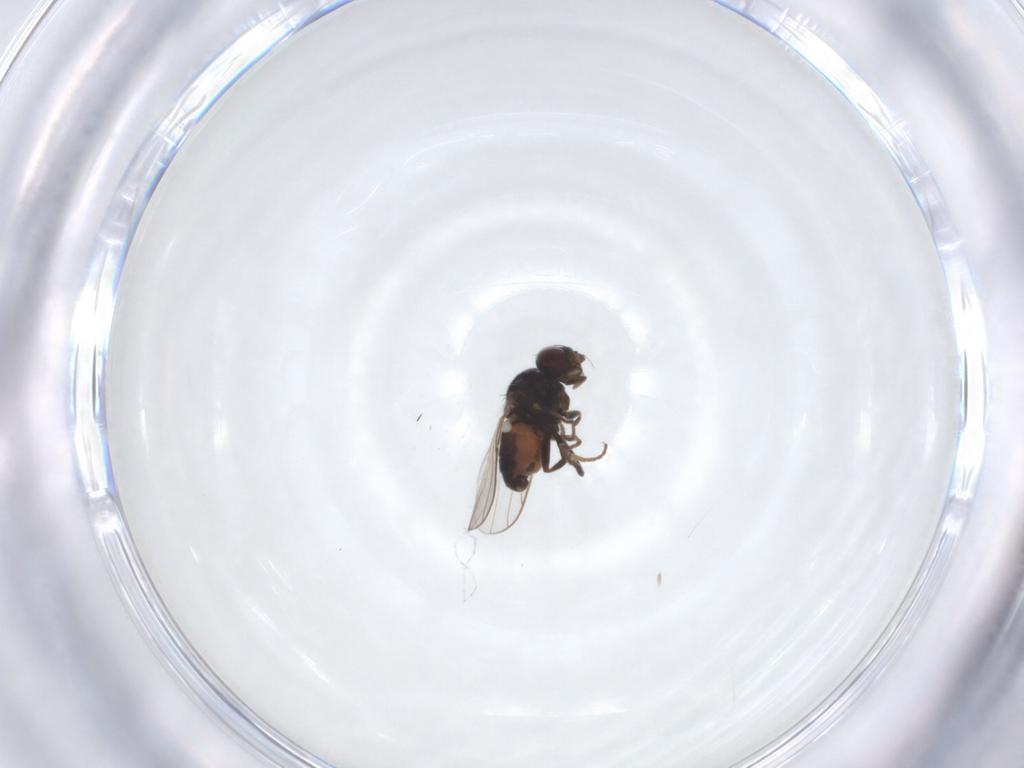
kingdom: Animalia
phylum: Arthropoda
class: Insecta
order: Diptera
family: Chloropidae
